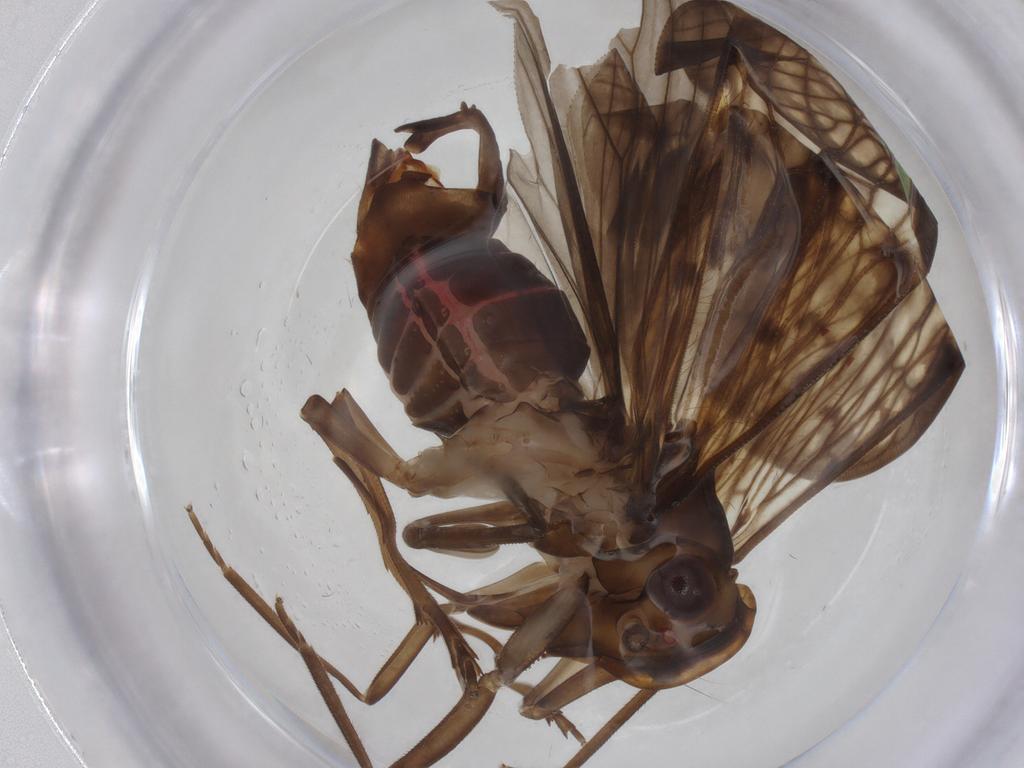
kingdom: Animalia
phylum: Arthropoda
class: Insecta
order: Hemiptera
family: Cixiidae
